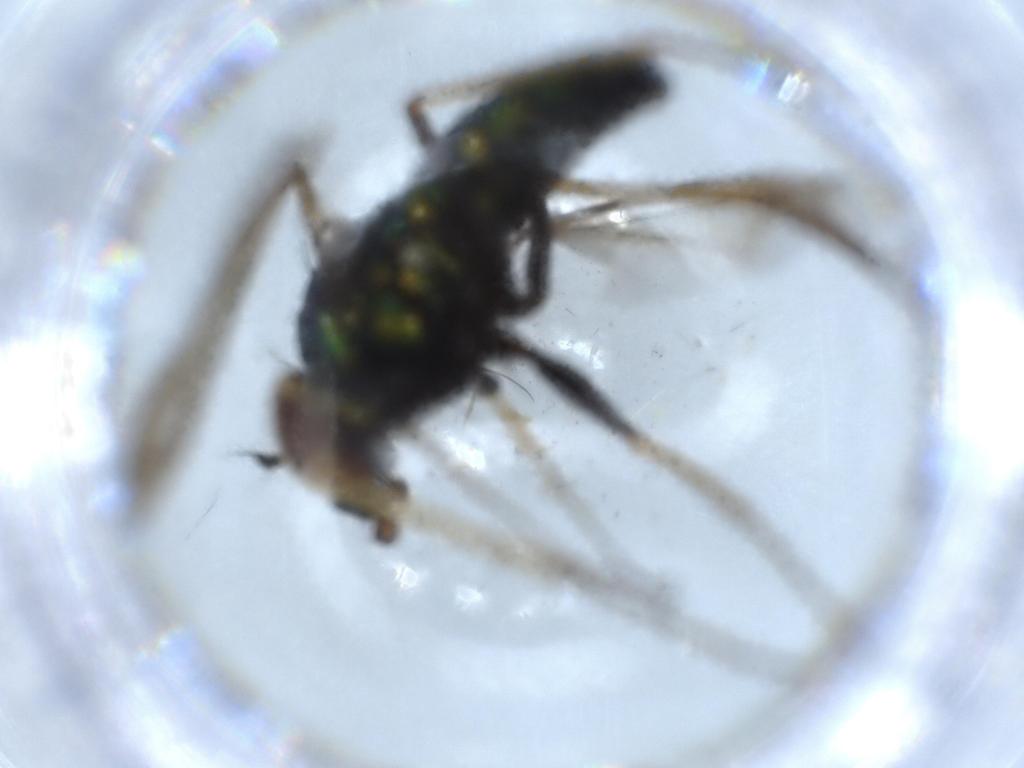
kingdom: Animalia
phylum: Arthropoda
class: Insecta
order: Diptera
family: Dolichopodidae
